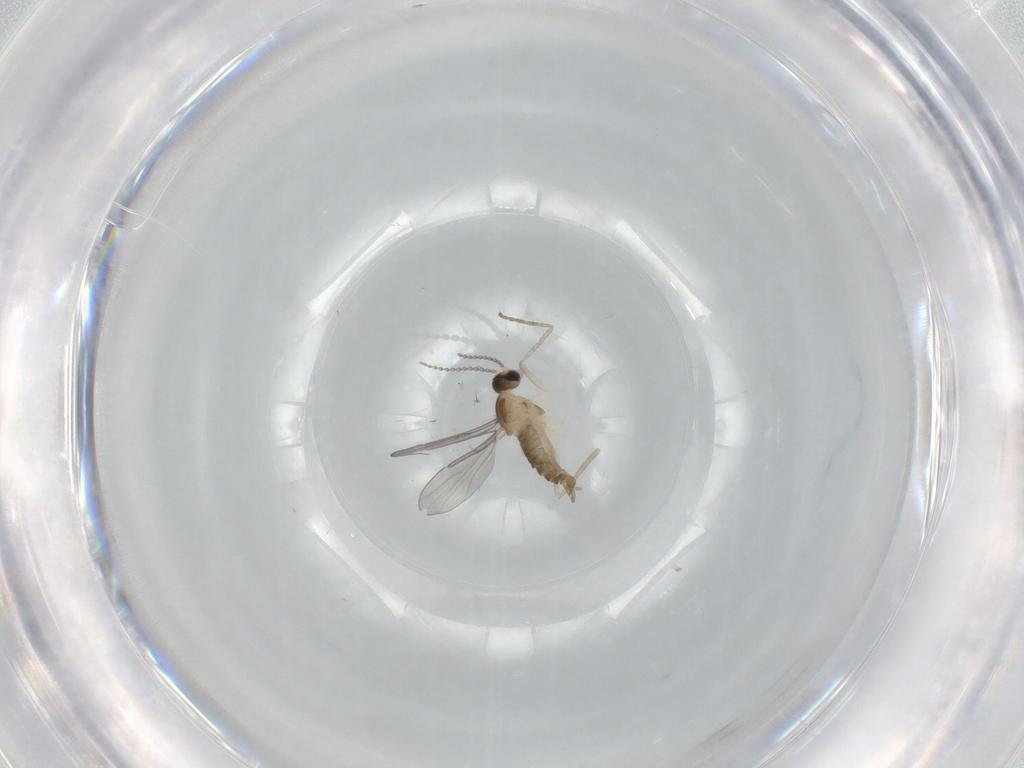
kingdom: Animalia
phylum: Arthropoda
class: Insecta
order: Diptera
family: Cecidomyiidae
